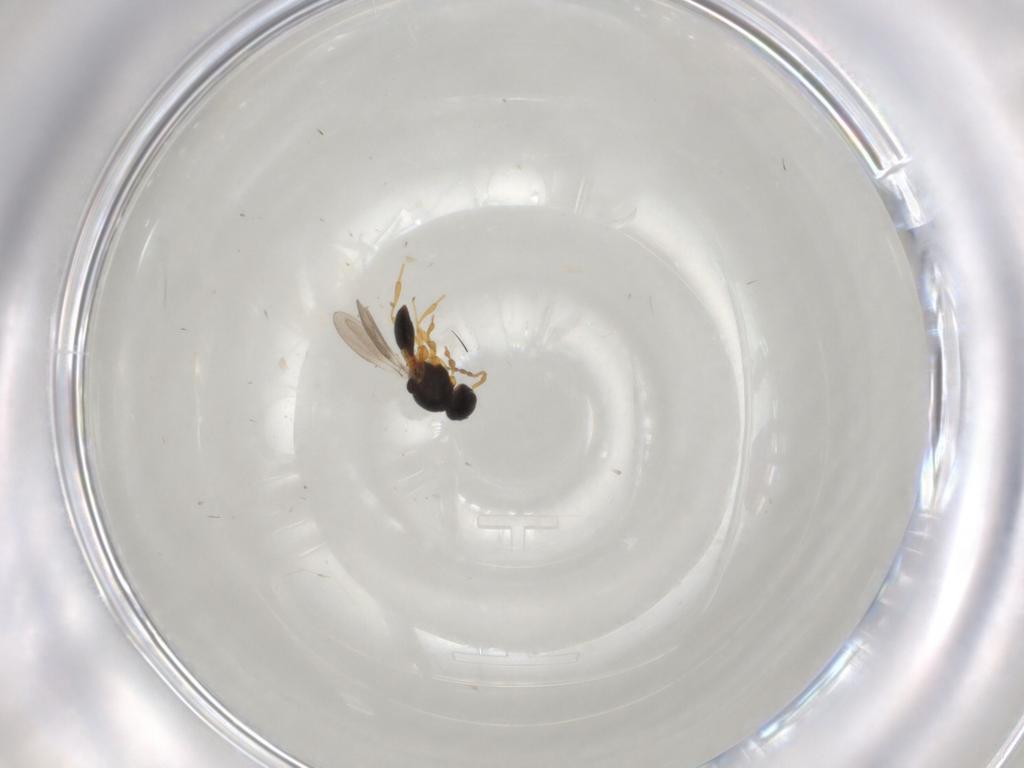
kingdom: Animalia
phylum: Arthropoda
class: Insecta
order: Hymenoptera
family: Platygastridae
